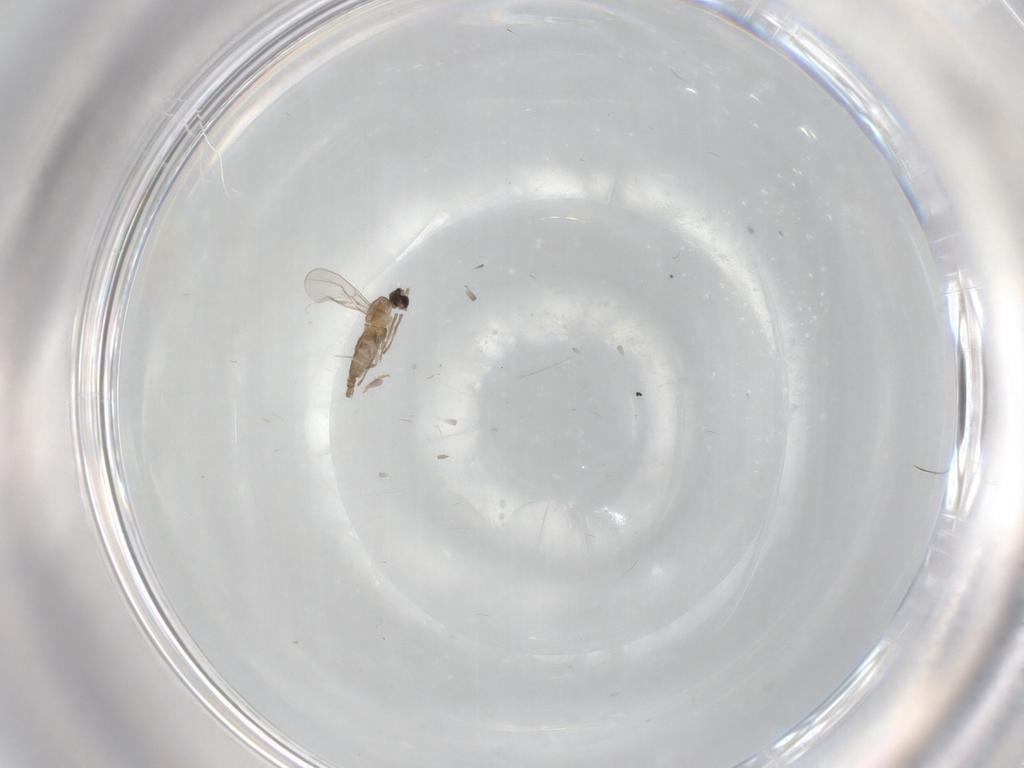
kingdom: Animalia
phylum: Arthropoda
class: Insecta
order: Diptera
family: Cecidomyiidae
